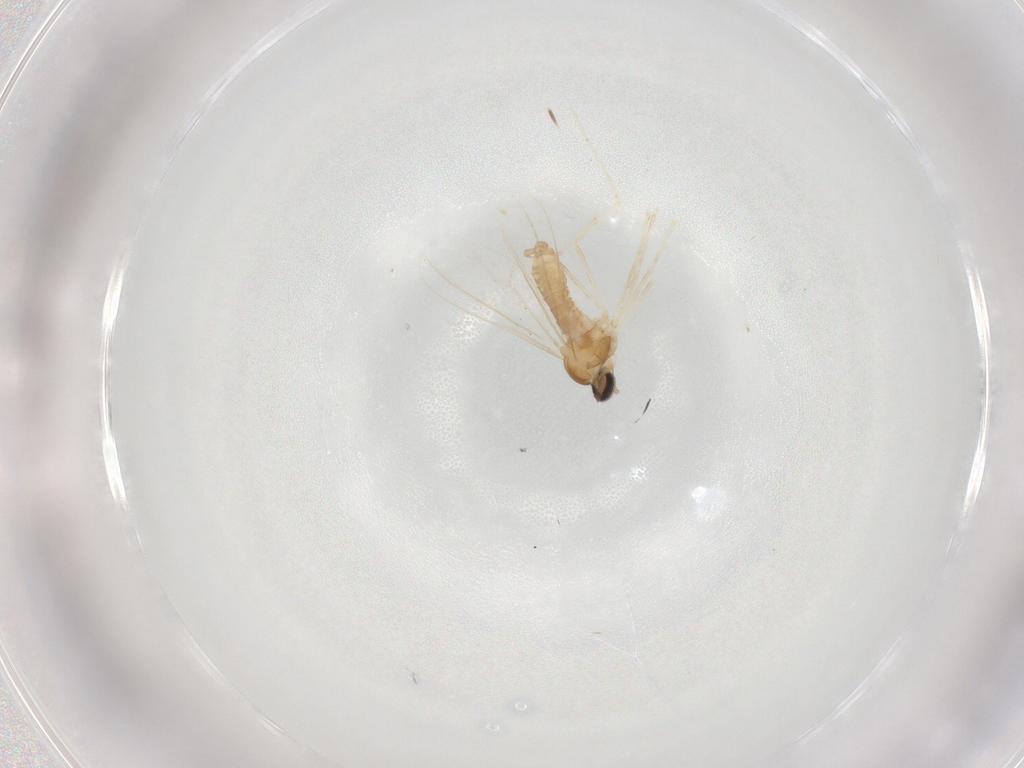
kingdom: Animalia
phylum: Arthropoda
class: Insecta
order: Diptera
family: Cecidomyiidae
